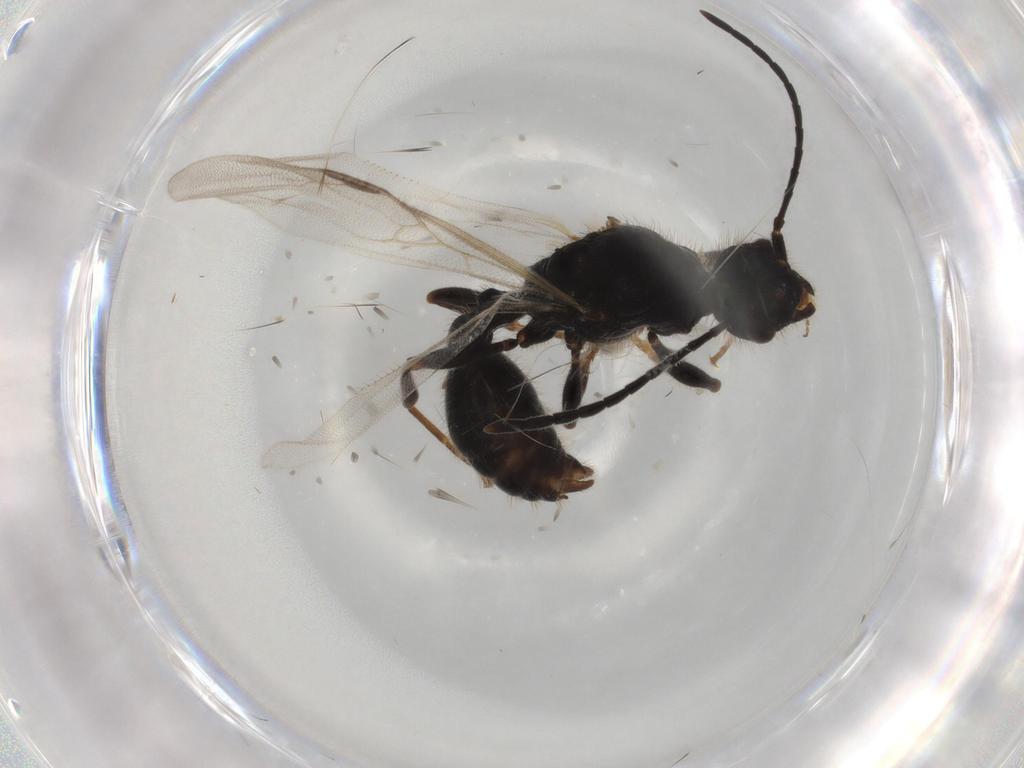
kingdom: Animalia
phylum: Arthropoda
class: Insecta
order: Hymenoptera
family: Formicidae
